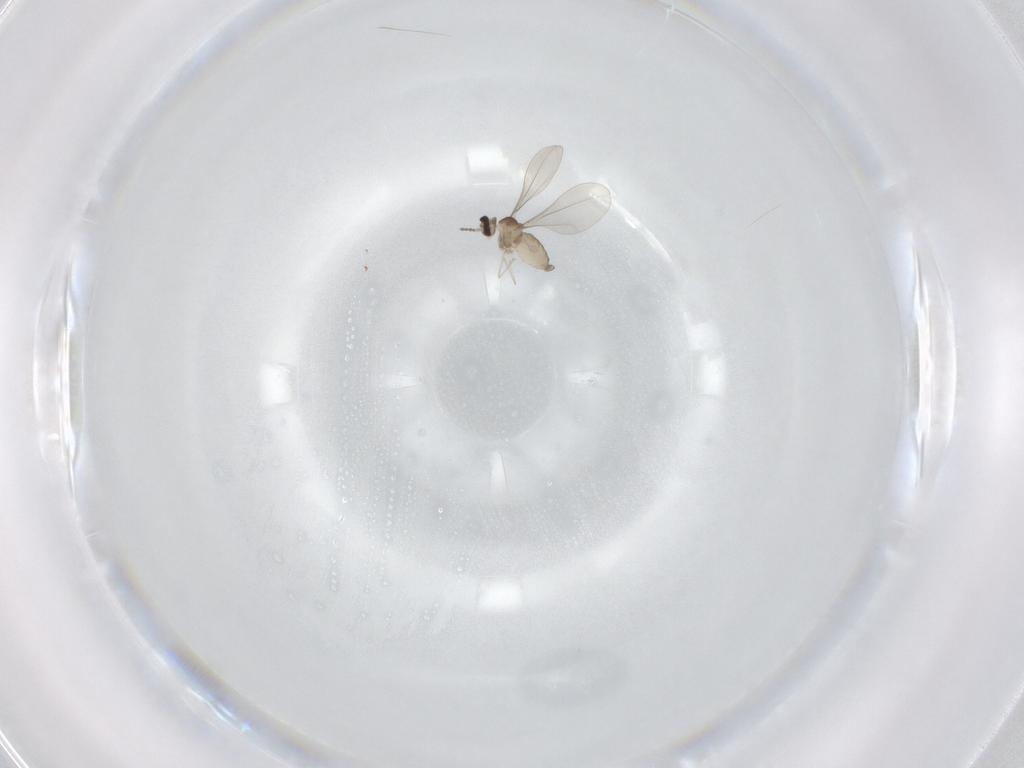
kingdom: Animalia
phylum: Arthropoda
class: Insecta
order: Diptera
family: Cecidomyiidae
